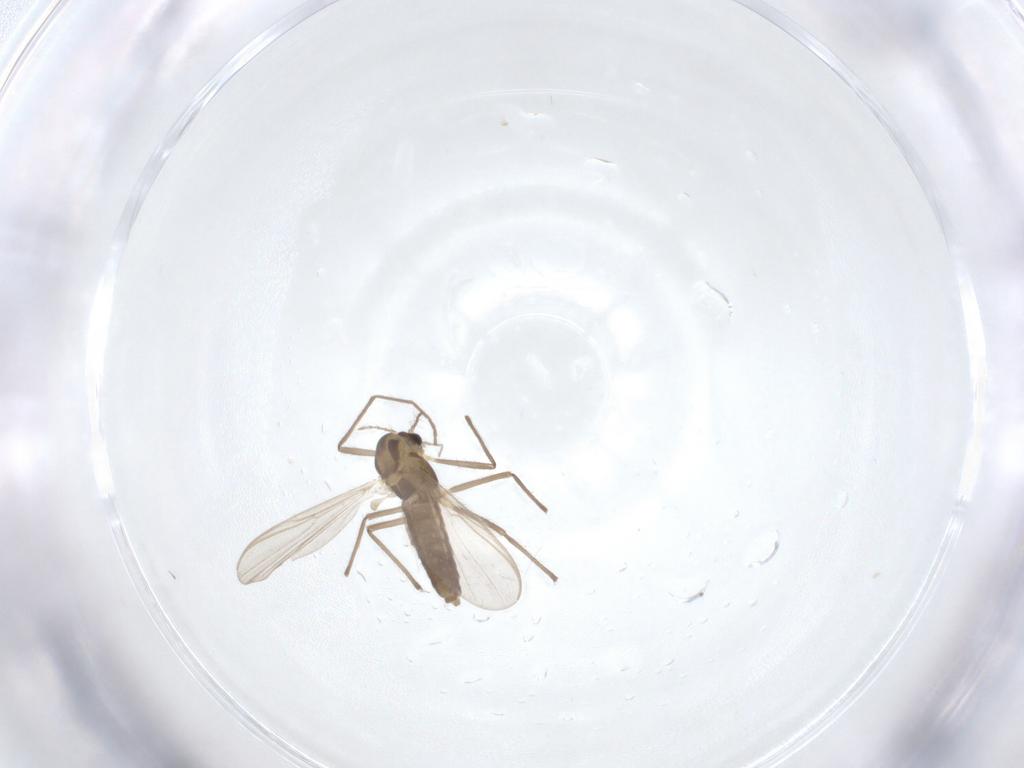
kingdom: Animalia
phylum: Arthropoda
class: Insecta
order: Diptera
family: Chironomidae
